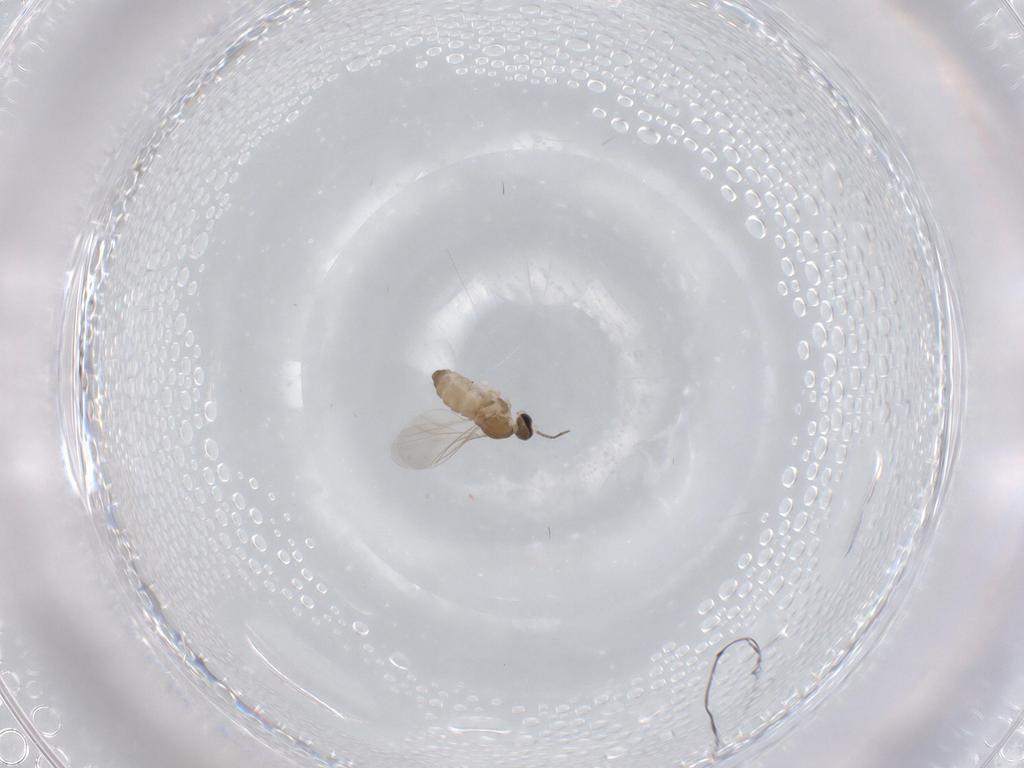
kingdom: Animalia
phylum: Arthropoda
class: Insecta
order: Diptera
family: Cecidomyiidae
